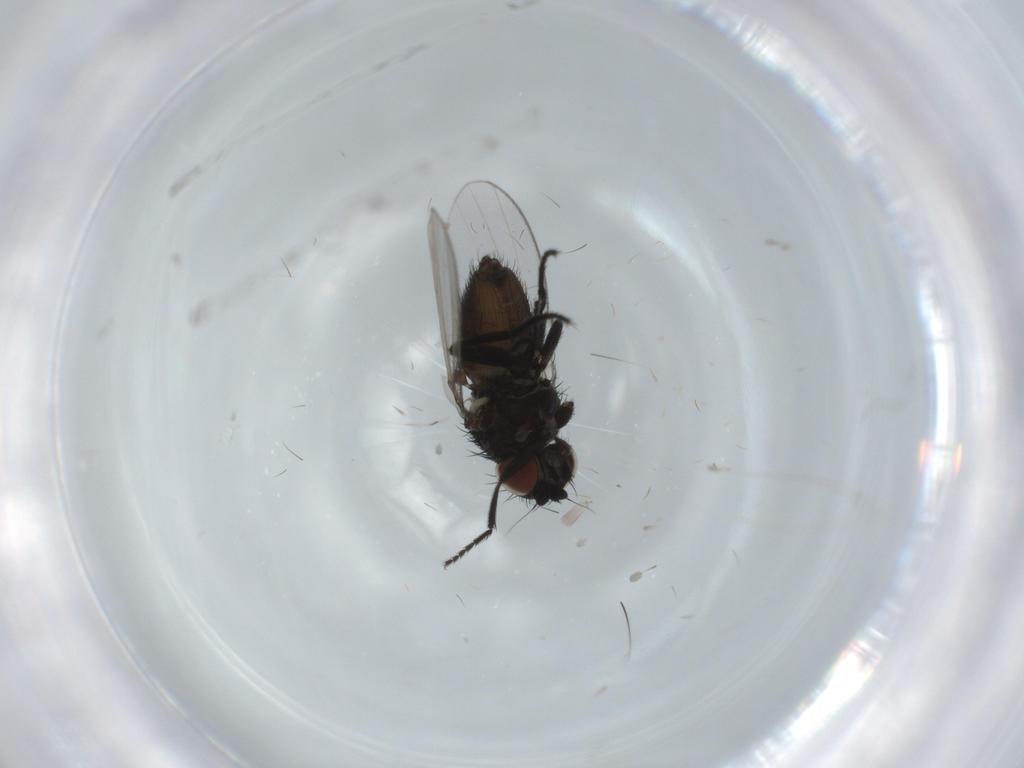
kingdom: Animalia
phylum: Arthropoda
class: Insecta
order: Diptera
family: Milichiidae
